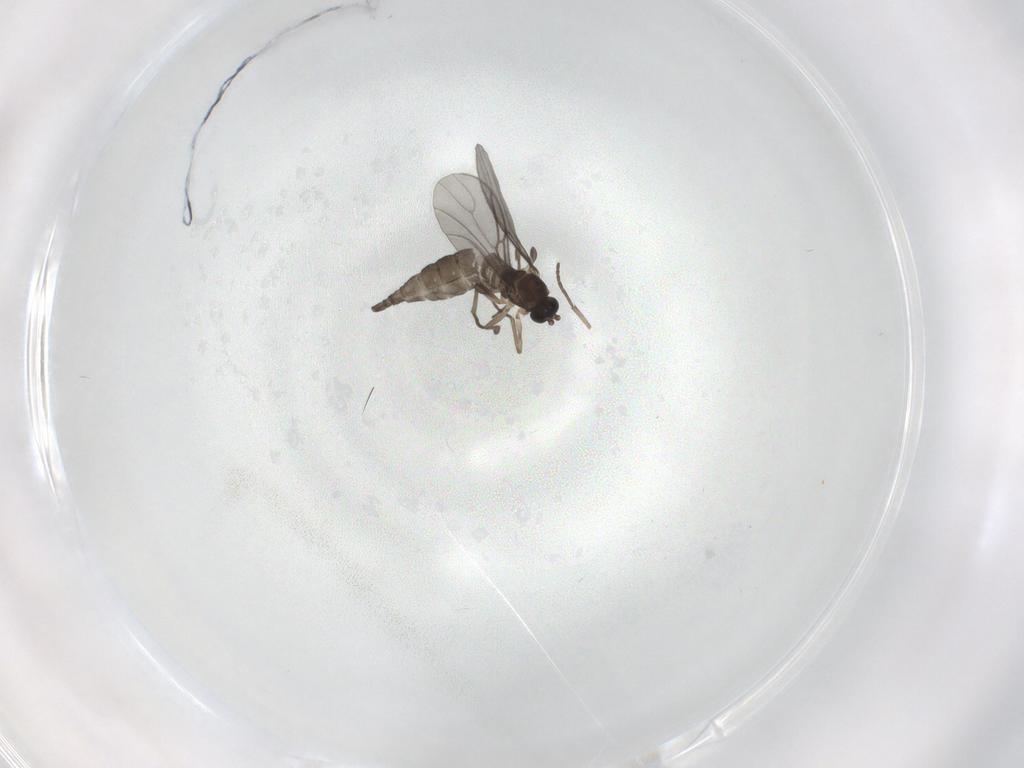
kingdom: Animalia
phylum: Arthropoda
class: Insecta
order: Diptera
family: Sciaridae
